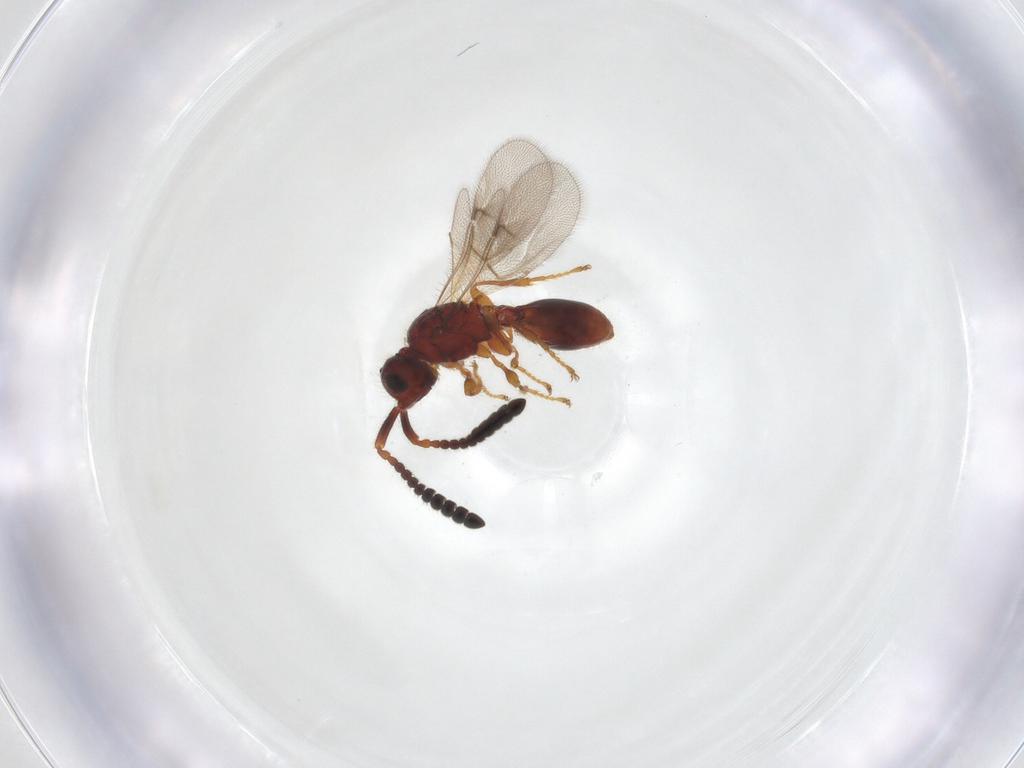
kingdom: Animalia
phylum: Arthropoda
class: Insecta
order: Hymenoptera
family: Diapriidae
